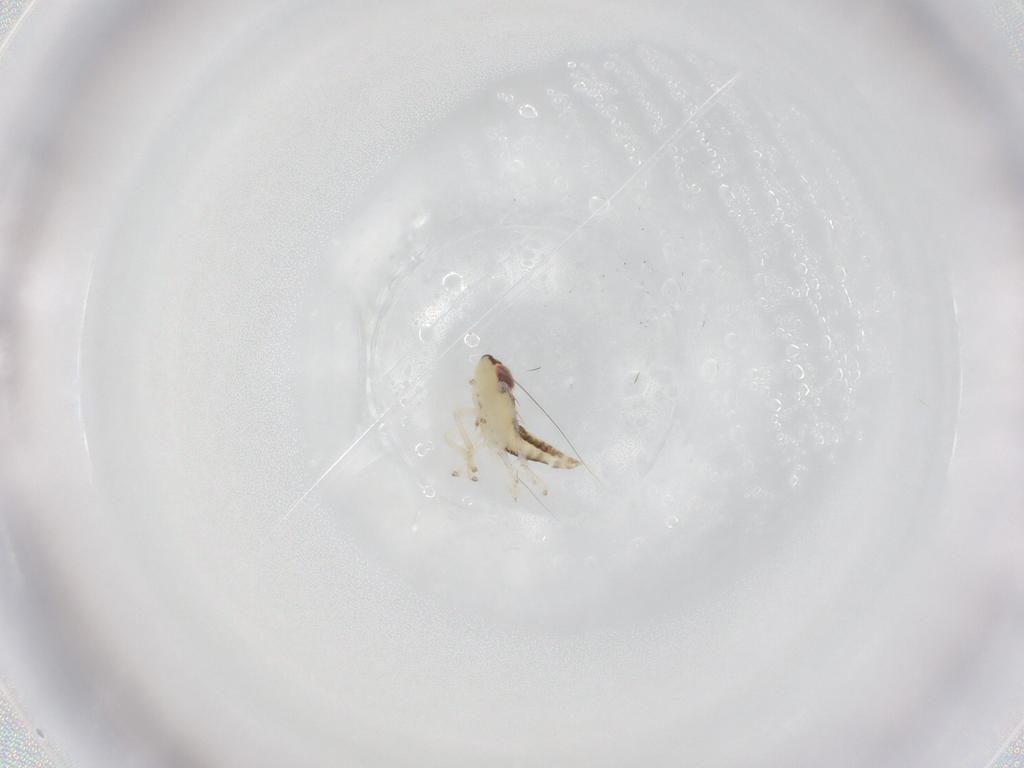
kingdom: Animalia
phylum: Arthropoda
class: Insecta
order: Hemiptera
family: Cicadellidae
